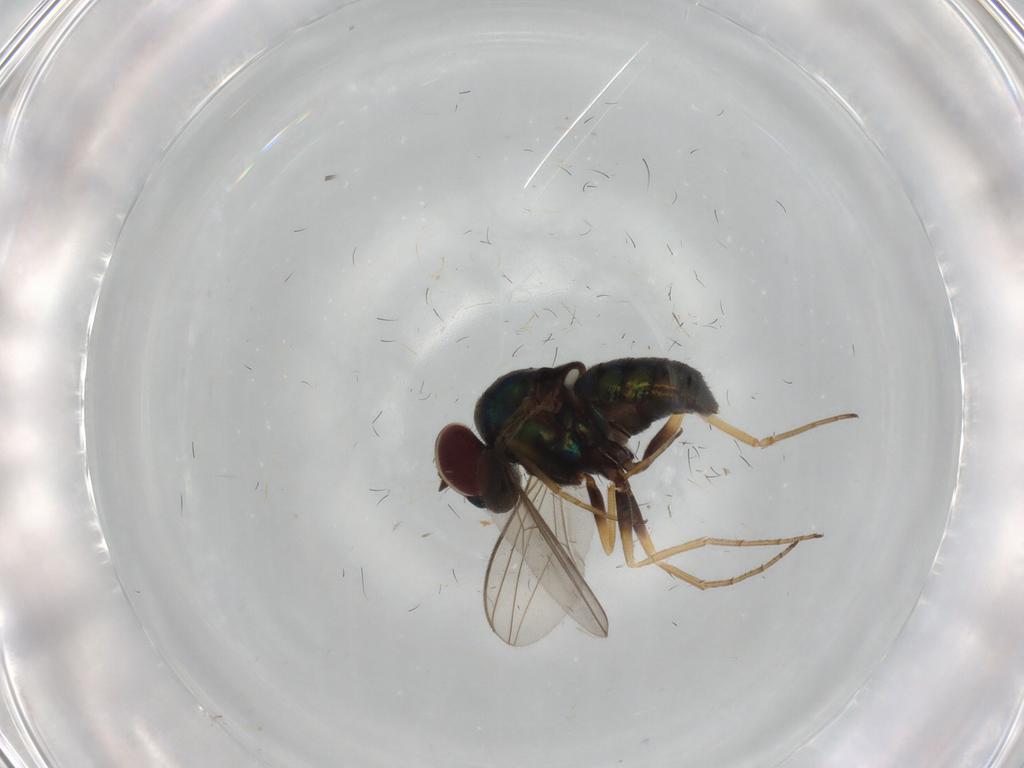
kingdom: Animalia
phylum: Arthropoda
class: Insecta
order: Diptera
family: Dolichopodidae
